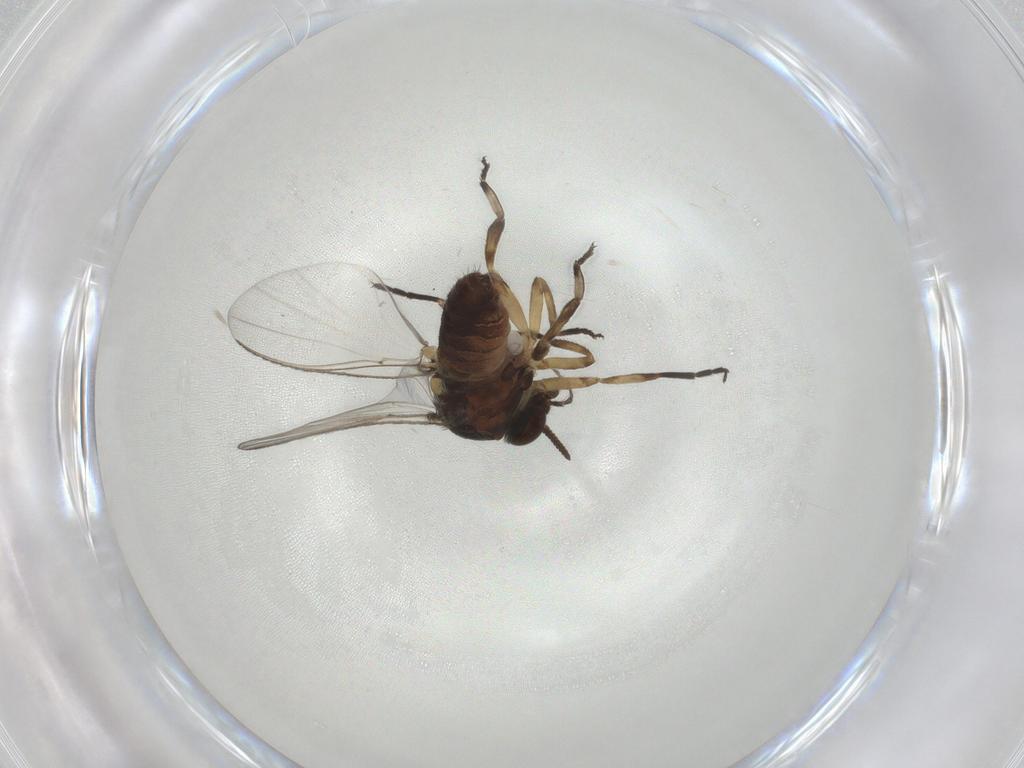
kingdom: Animalia
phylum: Arthropoda
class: Insecta
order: Diptera
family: Simuliidae
